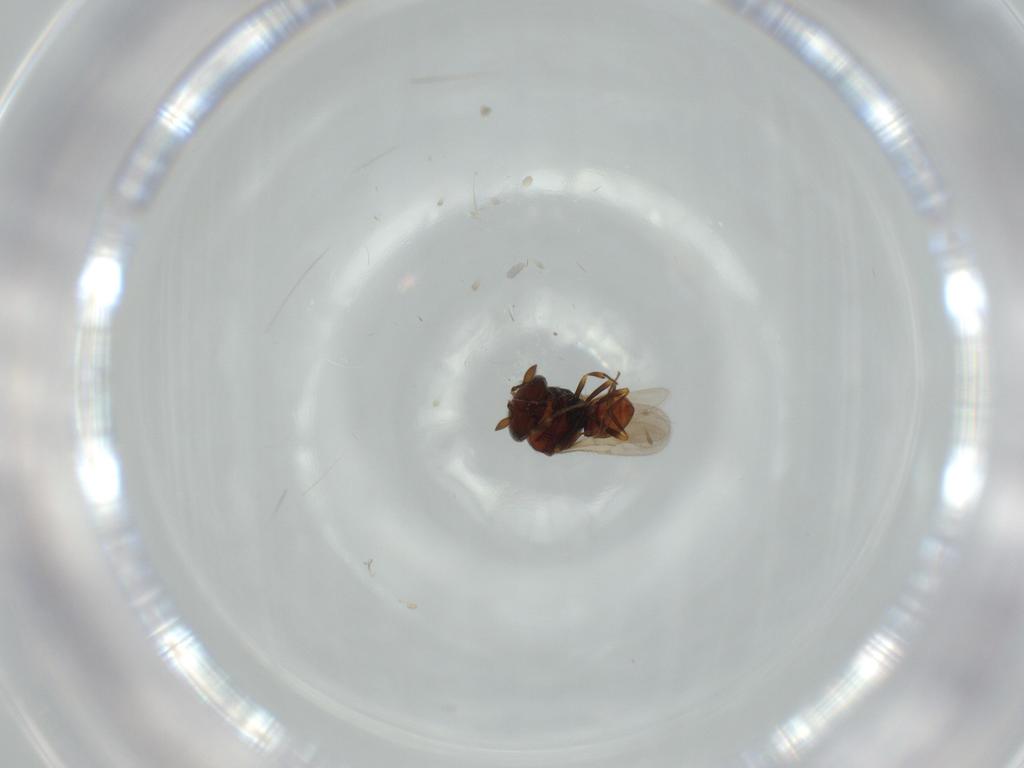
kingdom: Animalia
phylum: Arthropoda
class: Insecta
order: Hymenoptera
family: Scelionidae
